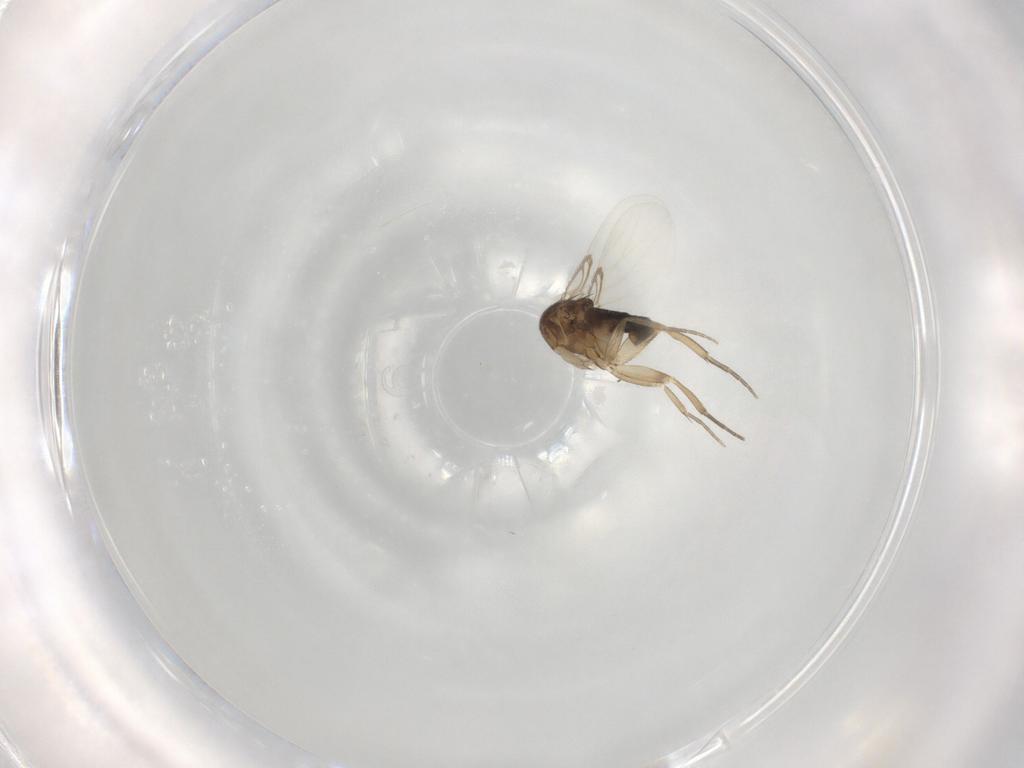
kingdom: Animalia
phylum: Arthropoda
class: Insecta
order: Diptera
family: Phoridae
